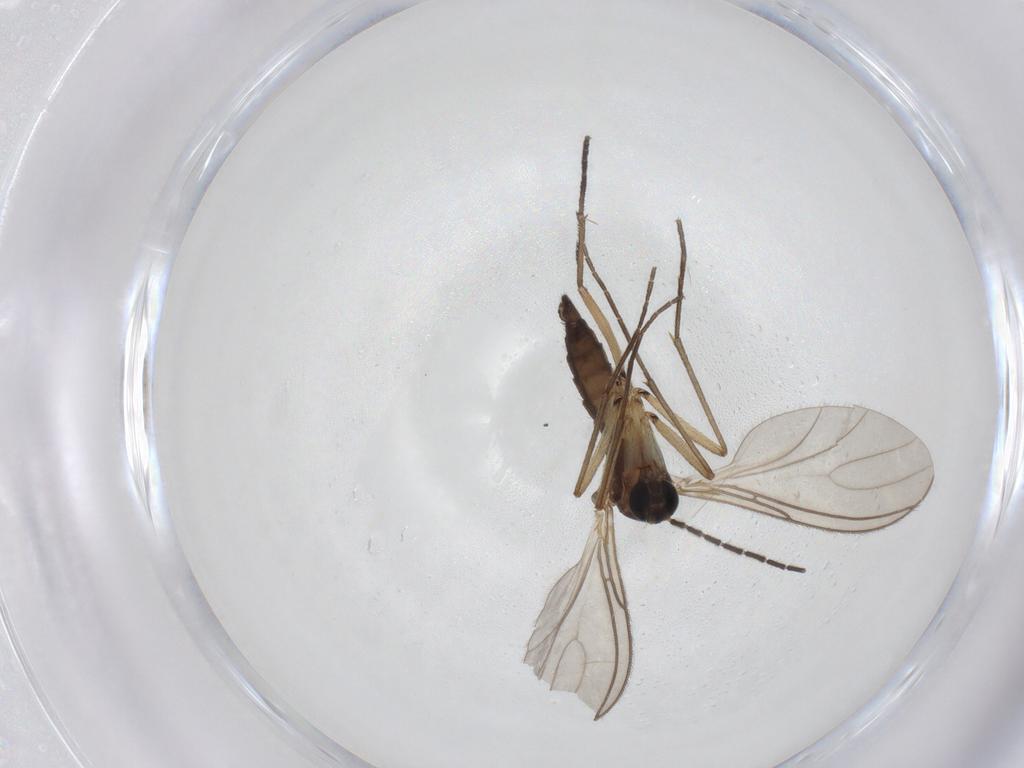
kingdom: Animalia
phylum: Arthropoda
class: Insecta
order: Diptera
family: Sciaridae
